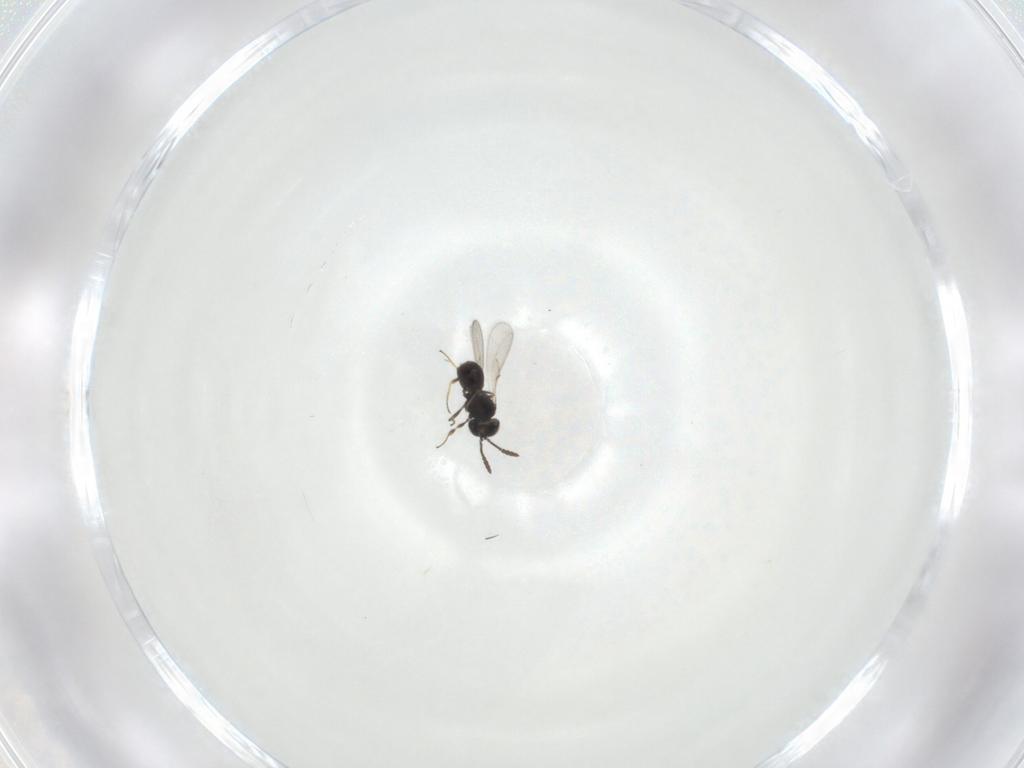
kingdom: Animalia
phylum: Arthropoda
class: Insecta
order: Hymenoptera
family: Scelionidae
